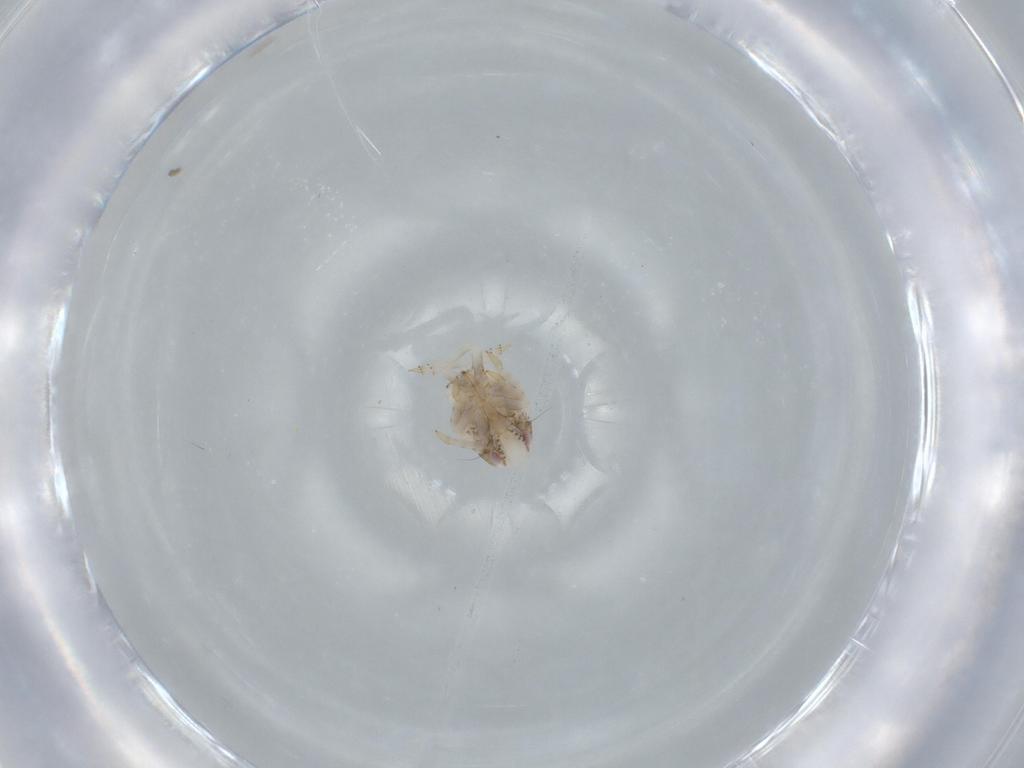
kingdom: Animalia
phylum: Arthropoda
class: Insecta
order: Hemiptera
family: Acanaloniidae
